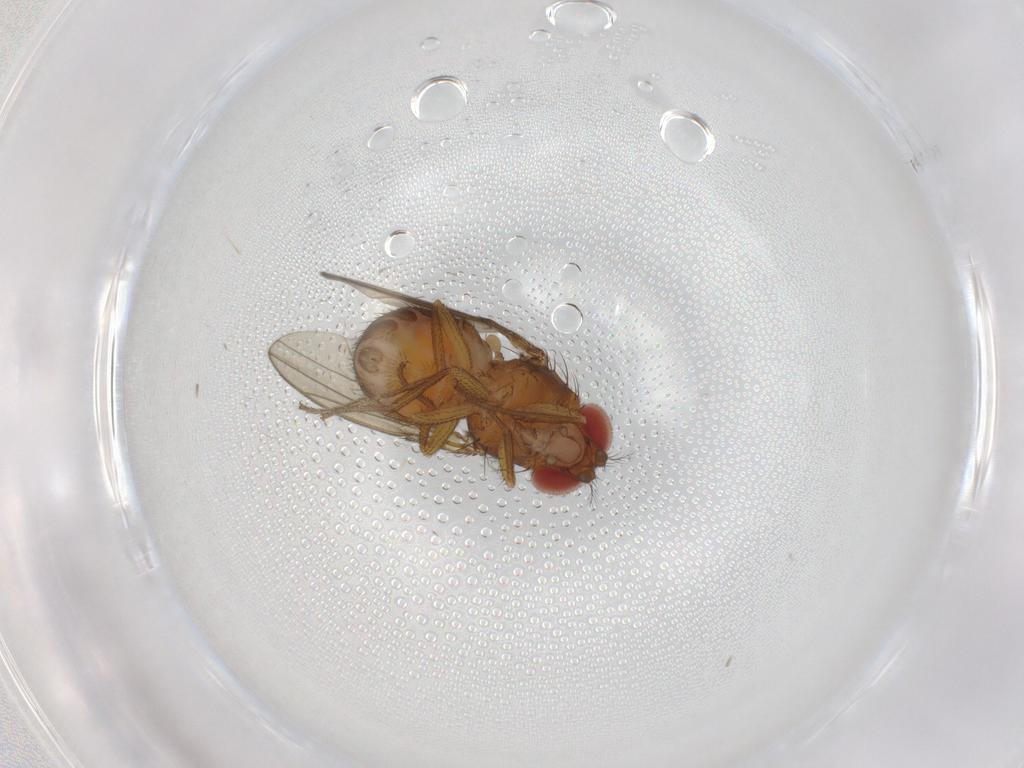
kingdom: Animalia
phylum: Arthropoda
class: Insecta
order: Diptera
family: Drosophilidae
